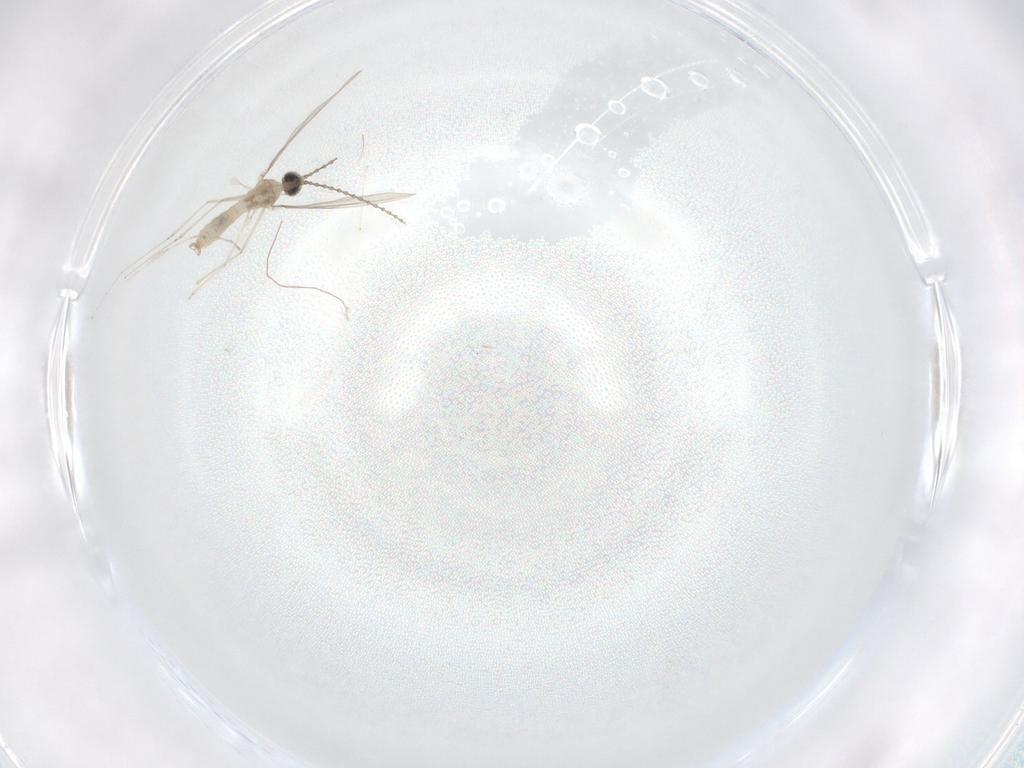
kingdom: Animalia
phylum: Arthropoda
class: Insecta
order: Diptera
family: Cecidomyiidae
